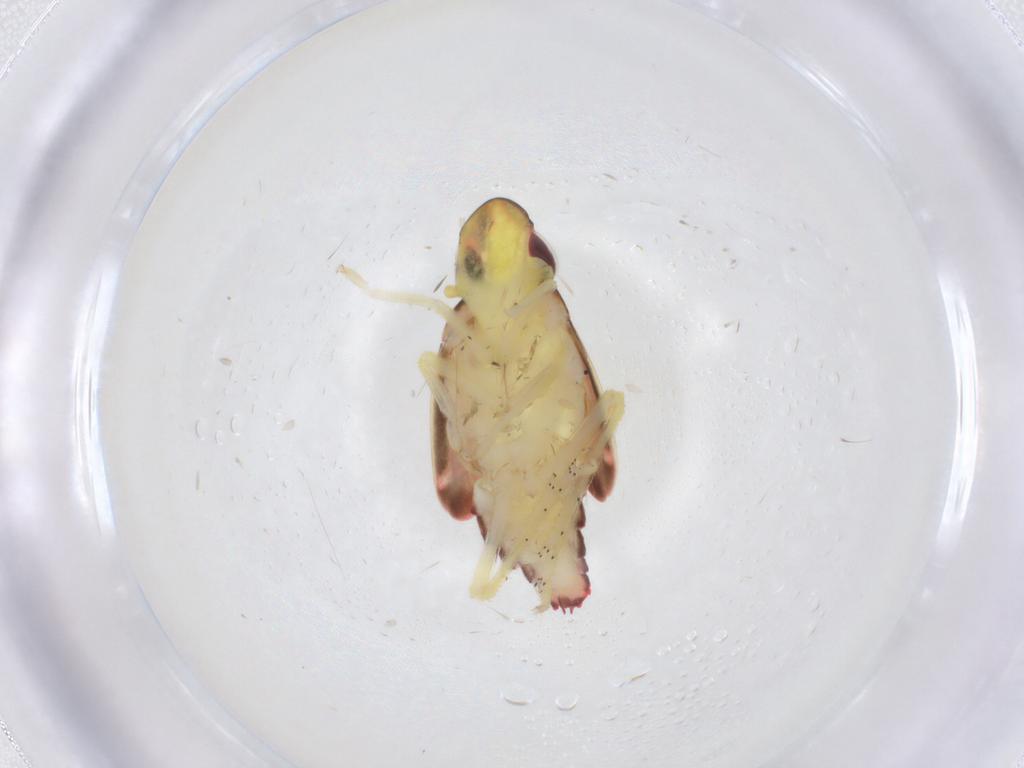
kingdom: Animalia
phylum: Arthropoda
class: Insecta
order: Hemiptera
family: Tropiduchidae
